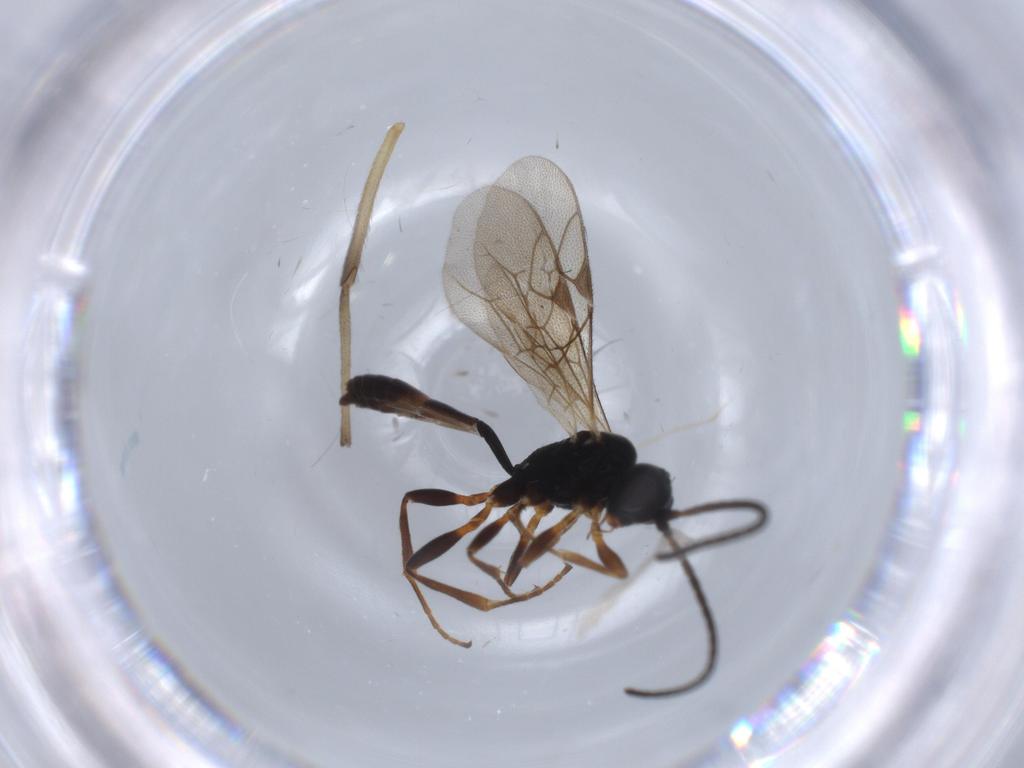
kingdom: Animalia
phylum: Arthropoda
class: Insecta
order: Hymenoptera
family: Ichneumonidae
